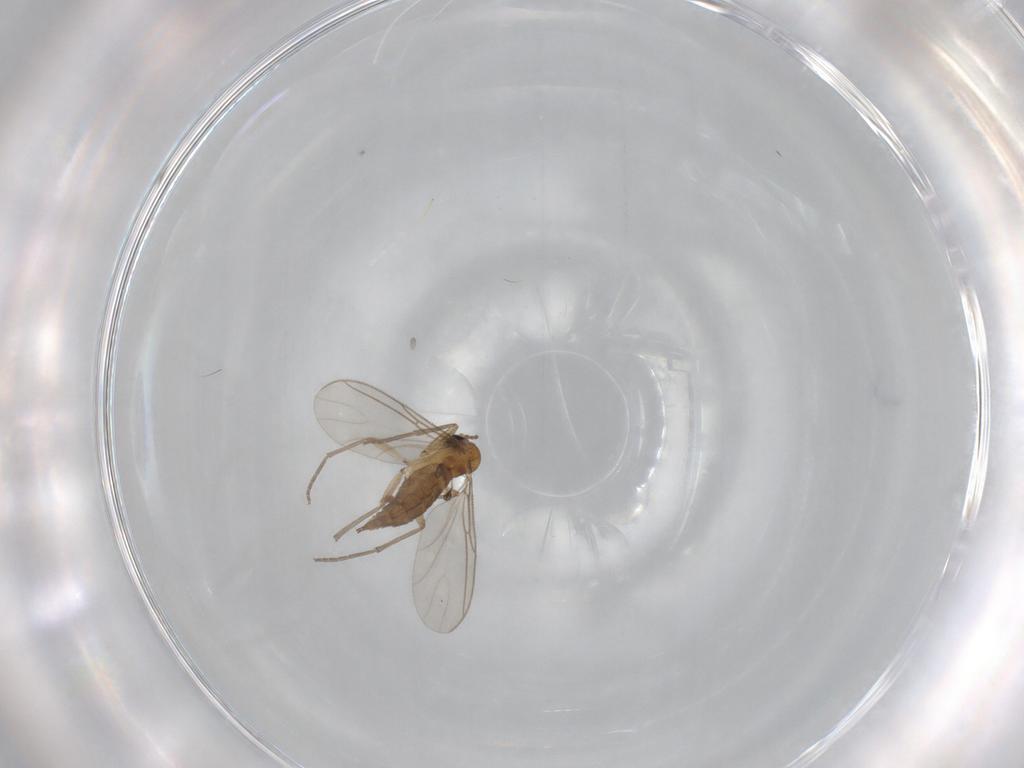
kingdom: Animalia
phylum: Arthropoda
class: Insecta
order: Diptera
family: Sciaridae
